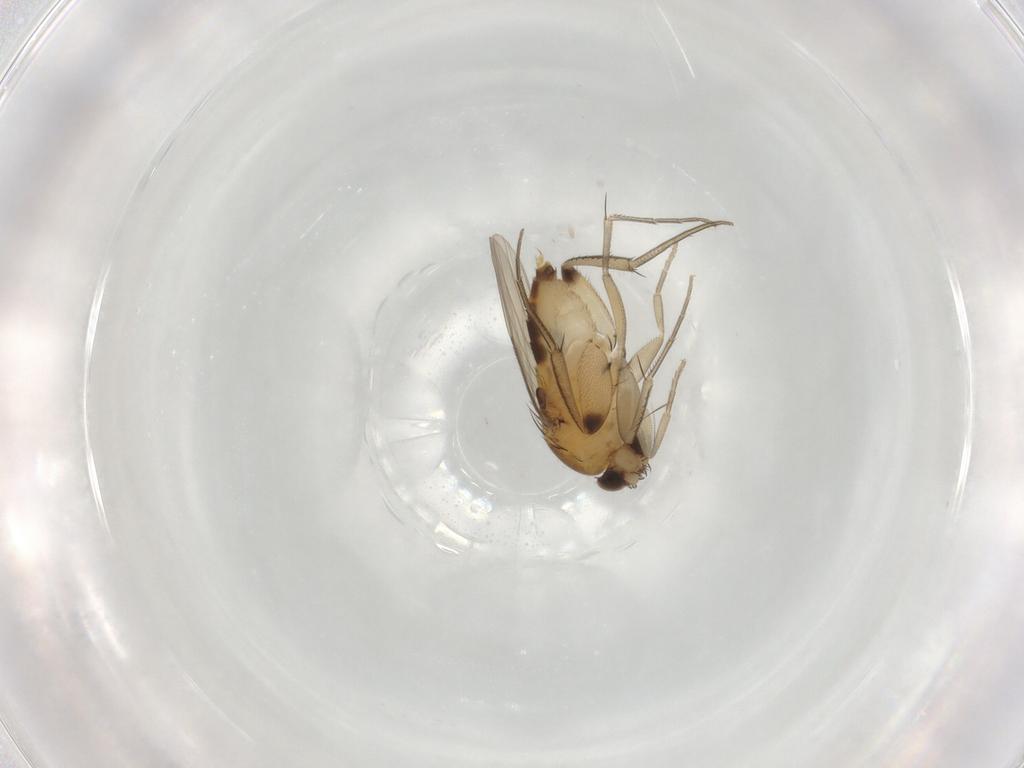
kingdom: Animalia
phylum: Arthropoda
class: Insecta
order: Diptera
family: Phoridae
